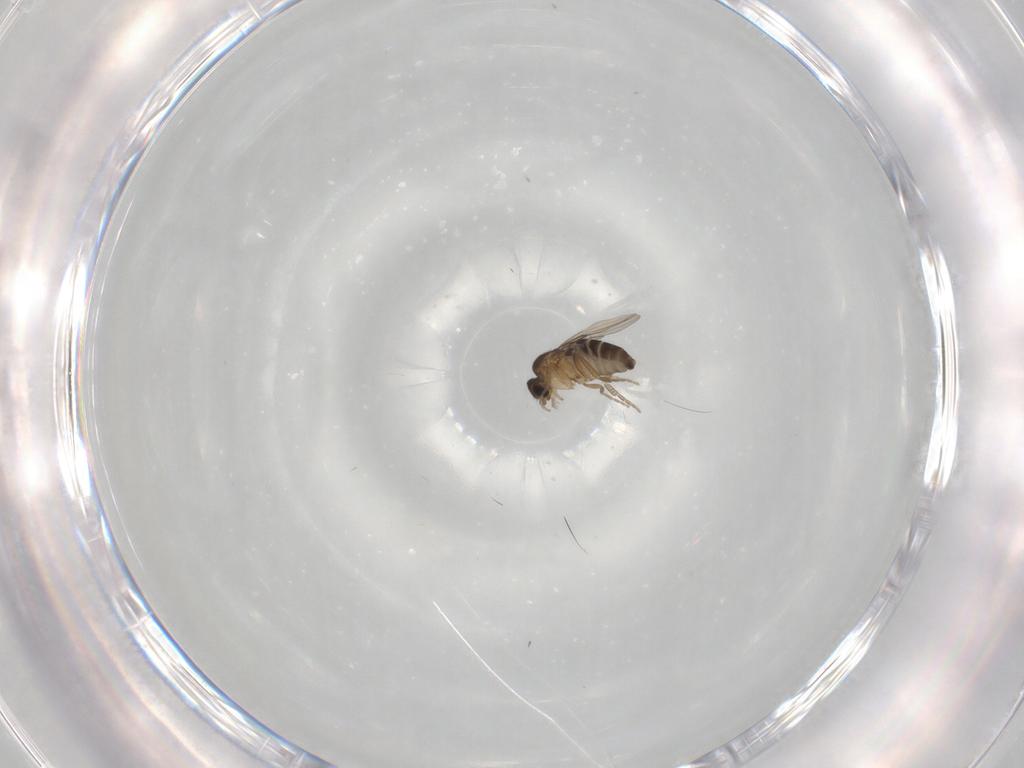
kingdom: Animalia
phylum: Arthropoda
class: Insecta
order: Diptera
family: Phoridae
